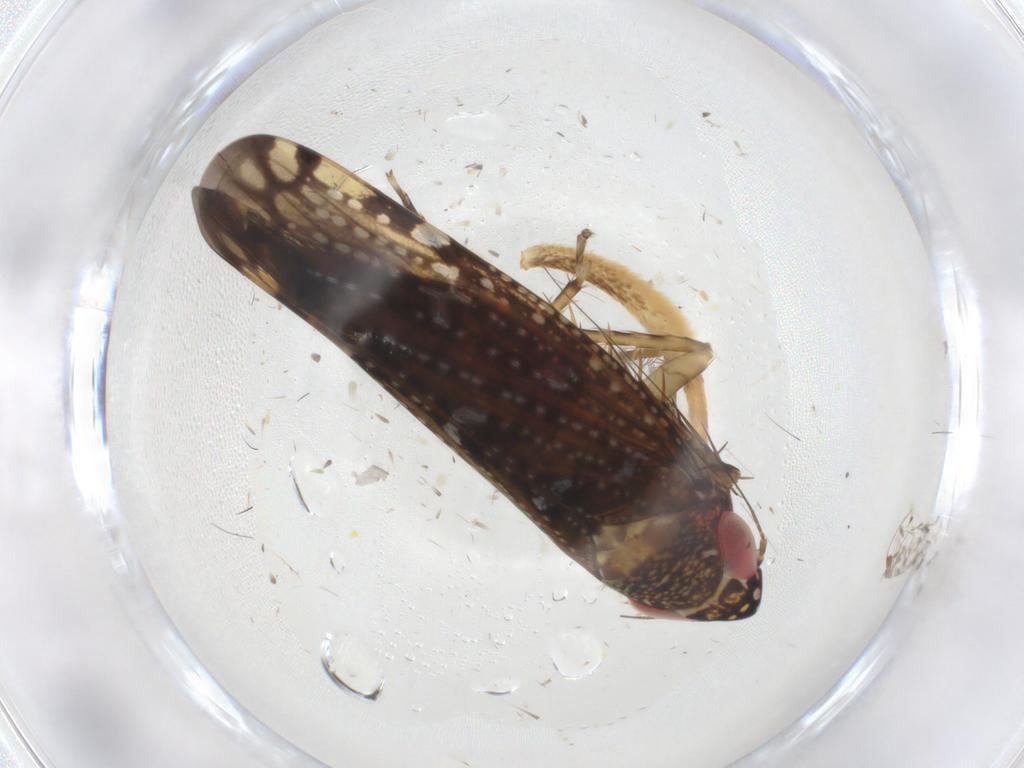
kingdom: Animalia
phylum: Arthropoda
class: Insecta
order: Hemiptera
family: Cicadellidae
